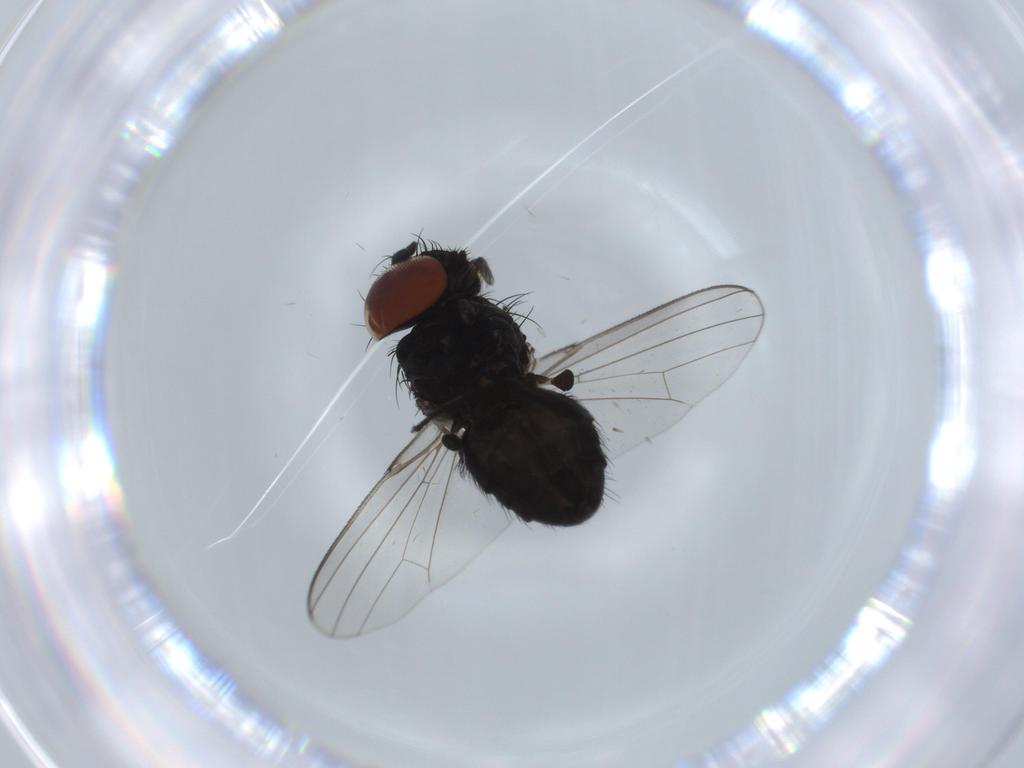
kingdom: Animalia
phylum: Arthropoda
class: Insecta
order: Diptera
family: Milichiidae
